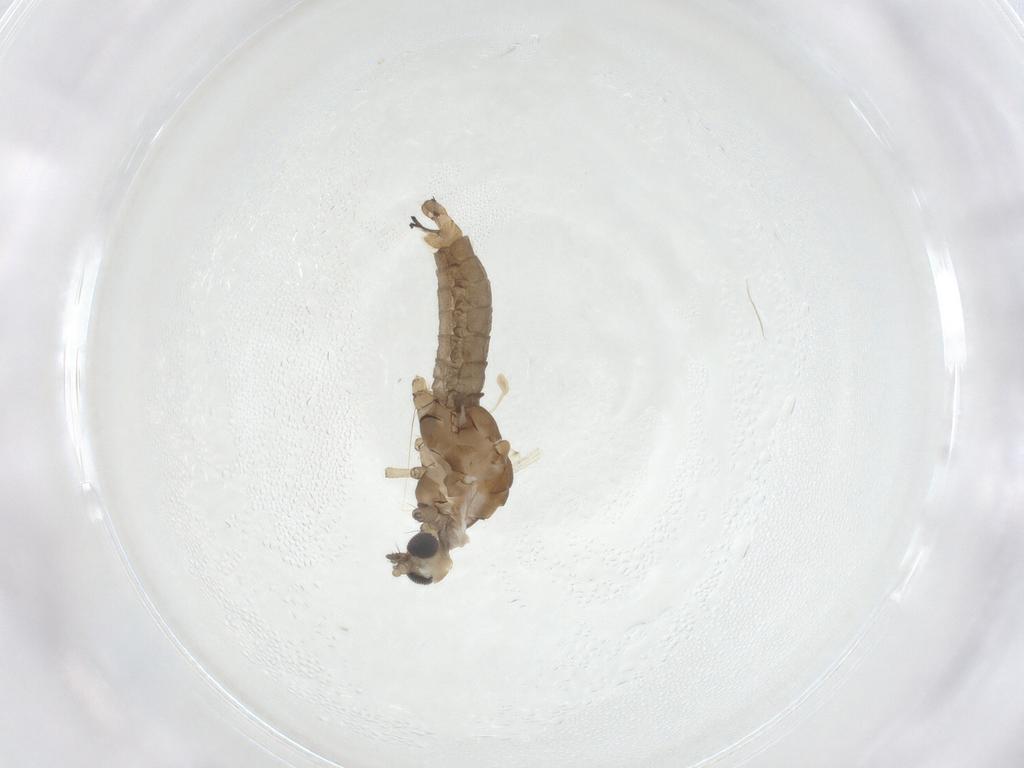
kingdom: Animalia
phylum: Arthropoda
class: Insecta
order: Diptera
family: Limoniidae
